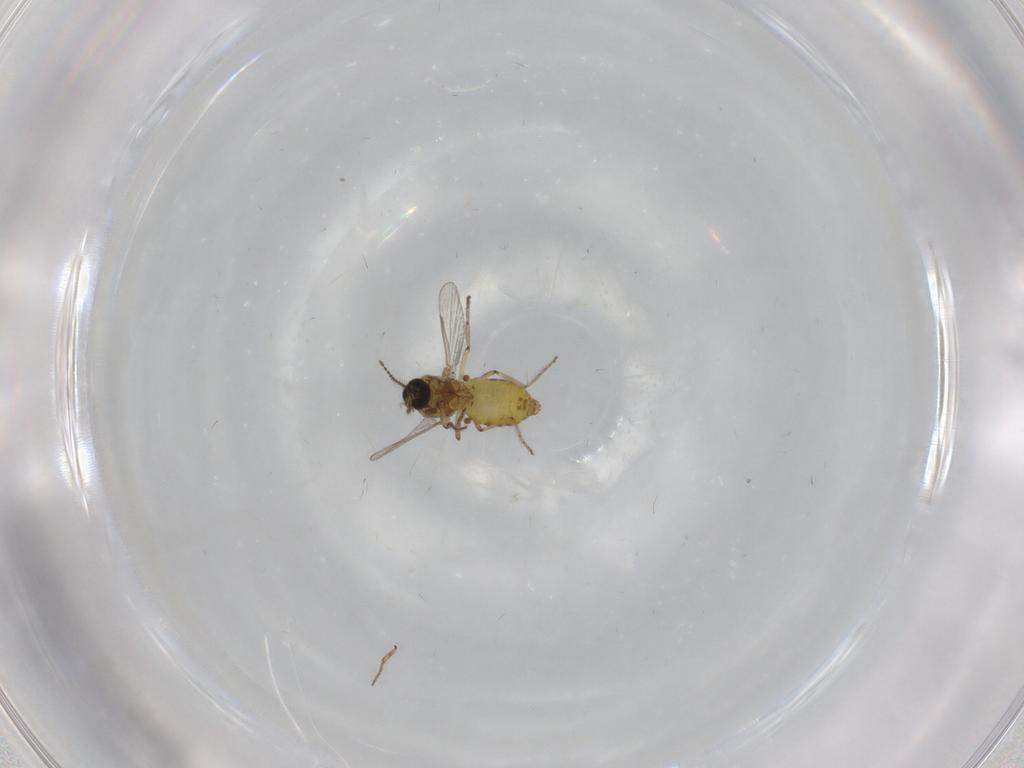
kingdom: Animalia
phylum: Arthropoda
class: Insecta
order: Diptera
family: Ceratopogonidae
